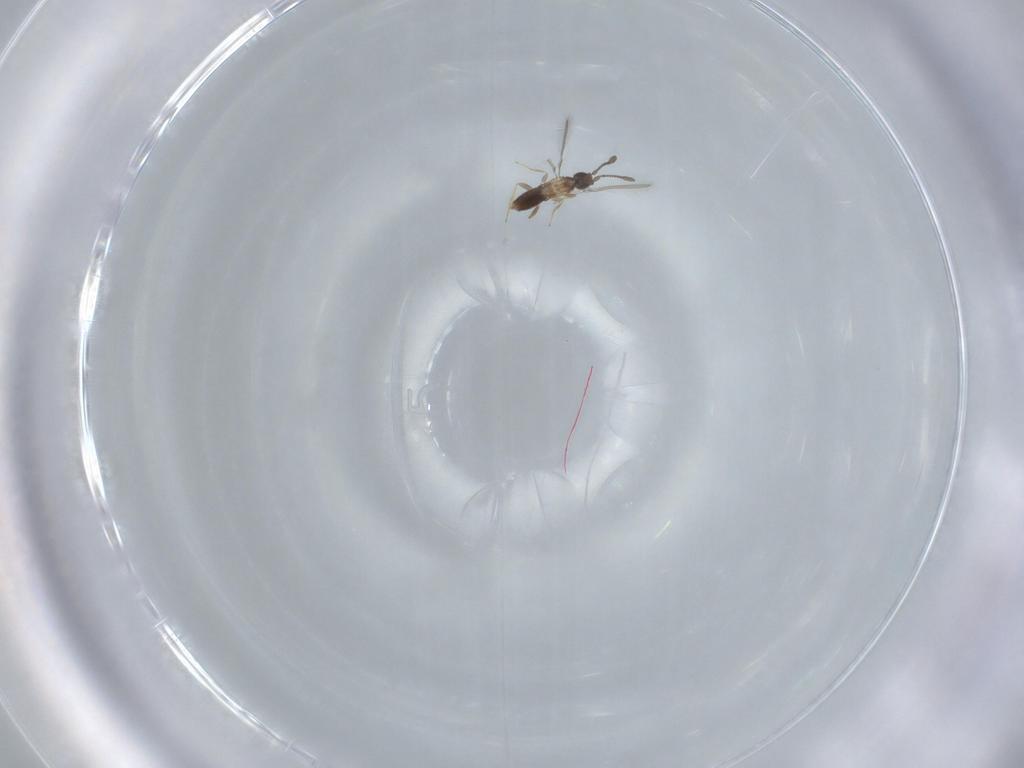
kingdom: Animalia
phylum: Arthropoda
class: Insecta
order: Hymenoptera
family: Mymaridae
